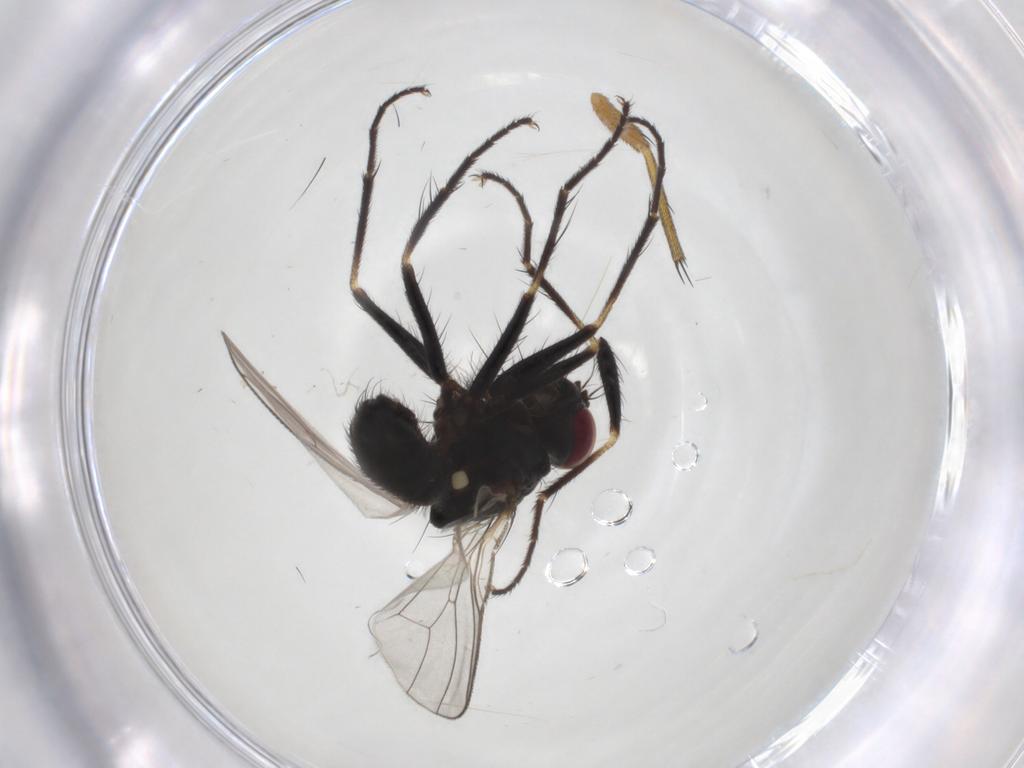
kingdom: Animalia
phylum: Arthropoda
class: Insecta
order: Diptera
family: Muscidae
